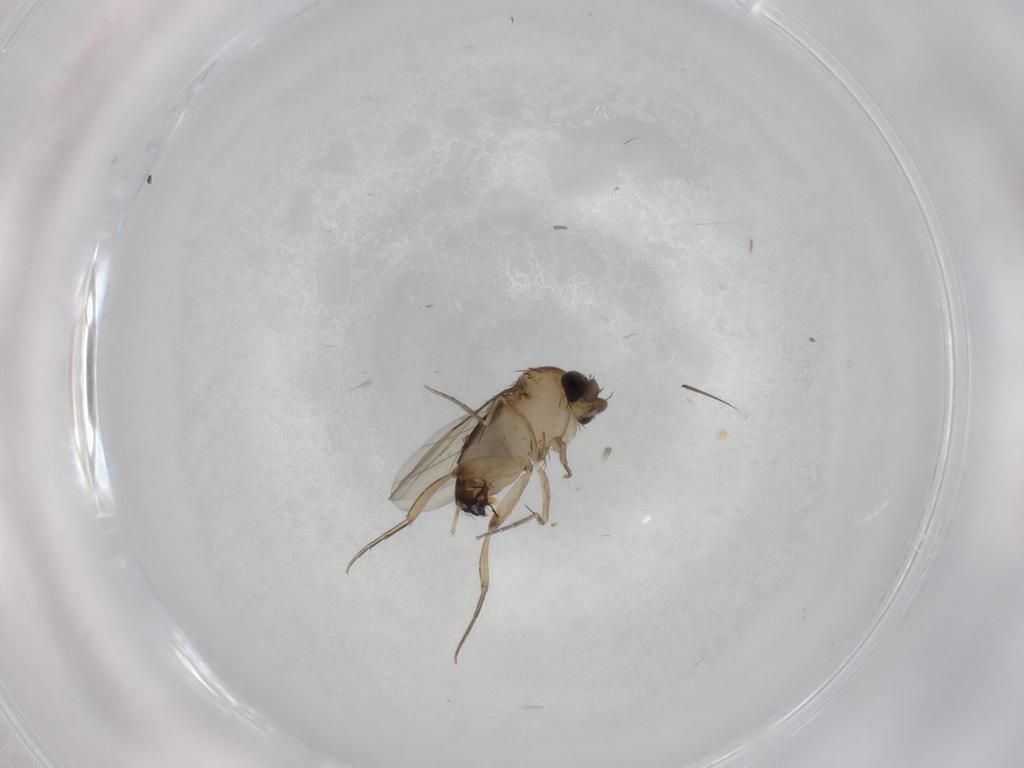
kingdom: Animalia
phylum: Arthropoda
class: Insecta
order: Diptera
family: Phoridae
